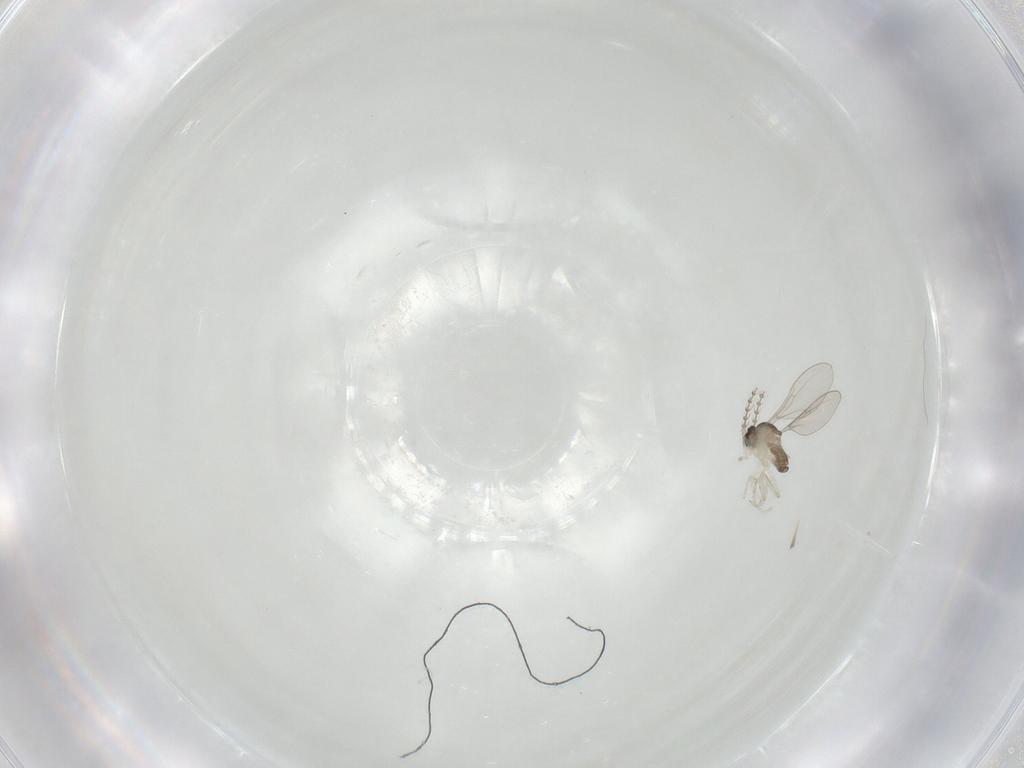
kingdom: Animalia
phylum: Arthropoda
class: Insecta
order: Diptera
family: Cecidomyiidae
